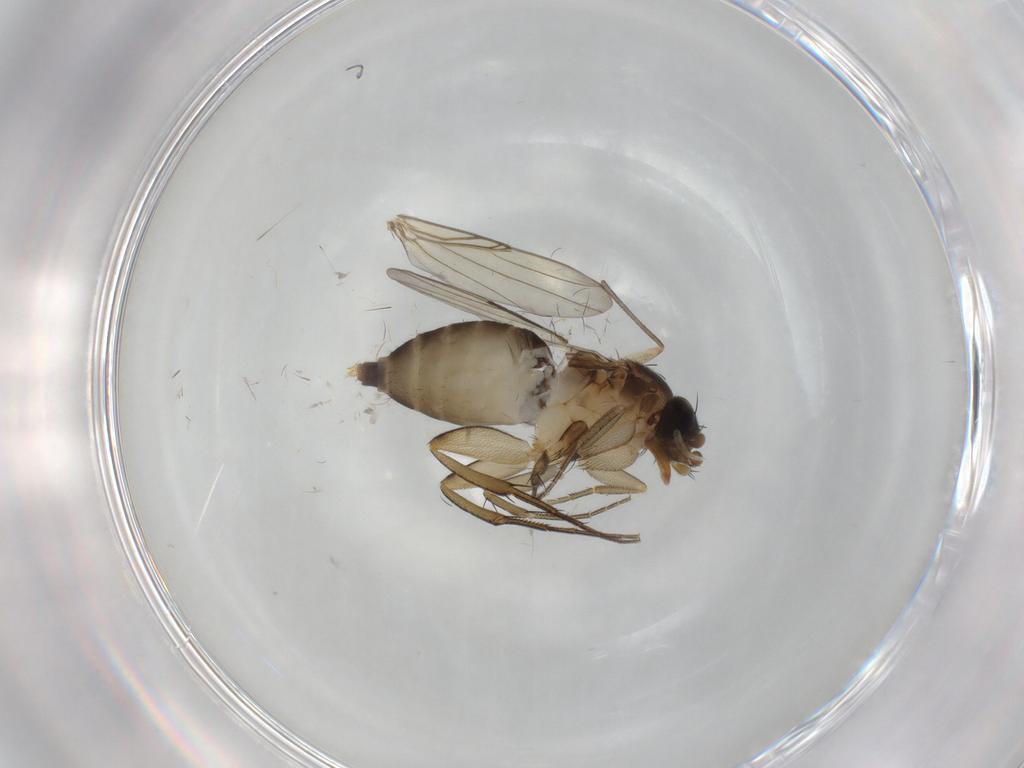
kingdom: Animalia
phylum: Arthropoda
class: Insecta
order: Diptera
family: Phoridae
